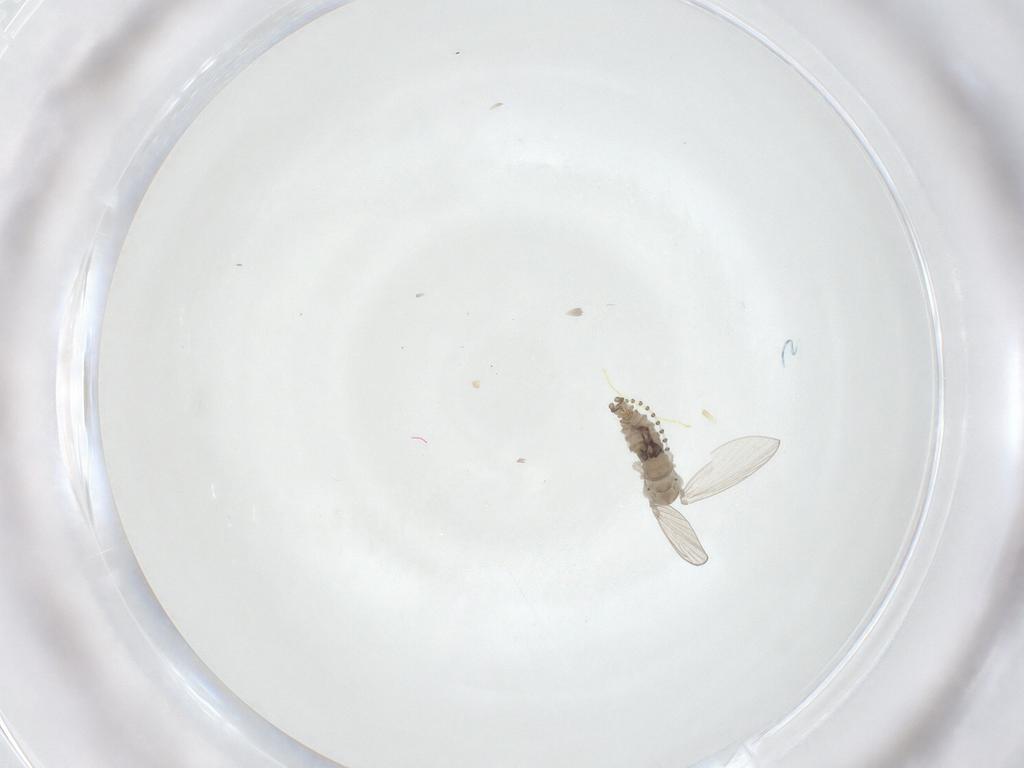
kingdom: Animalia
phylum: Arthropoda
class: Insecta
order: Diptera
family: Psychodidae
